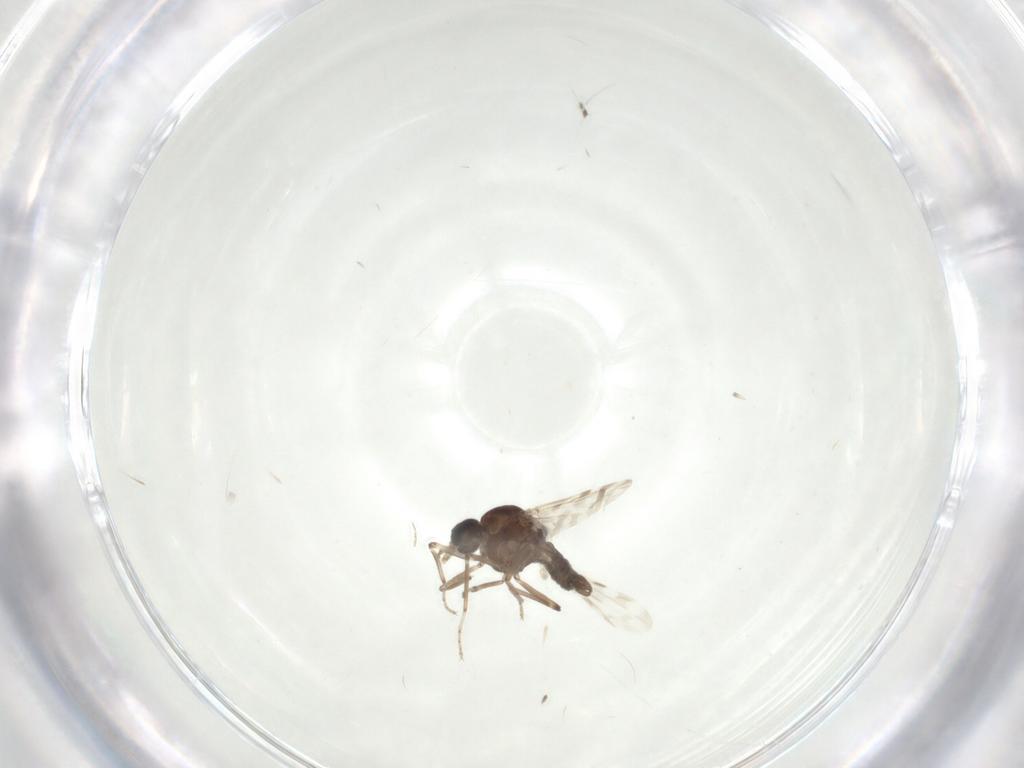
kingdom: Animalia
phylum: Arthropoda
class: Insecta
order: Diptera
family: Ceratopogonidae
